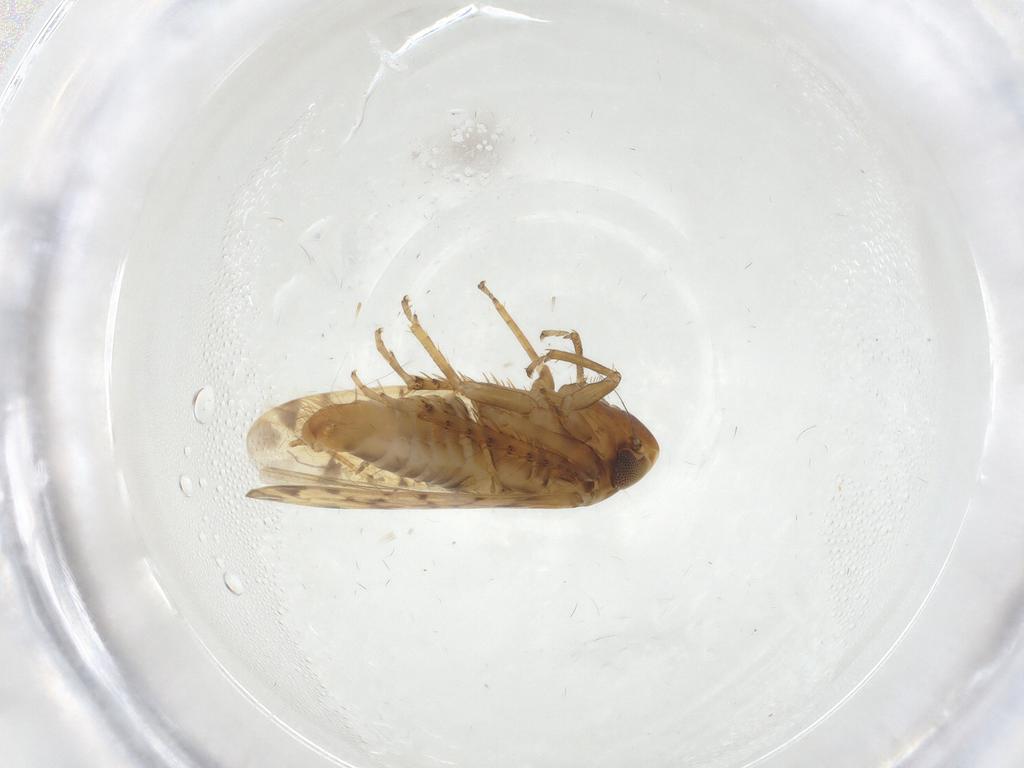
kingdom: Animalia
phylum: Arthropoda
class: Insecta
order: Hemiptera
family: Cicadellidae
